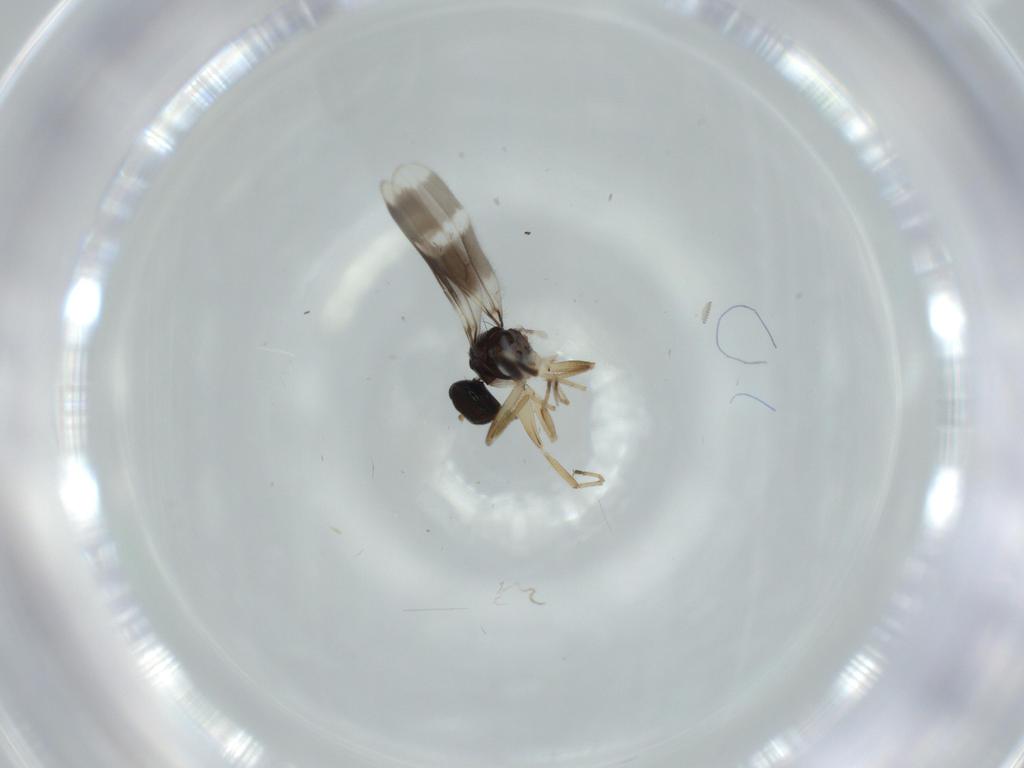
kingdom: Animalia
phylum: Arthropoda
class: Insecta
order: Diptera
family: Hybotidae
